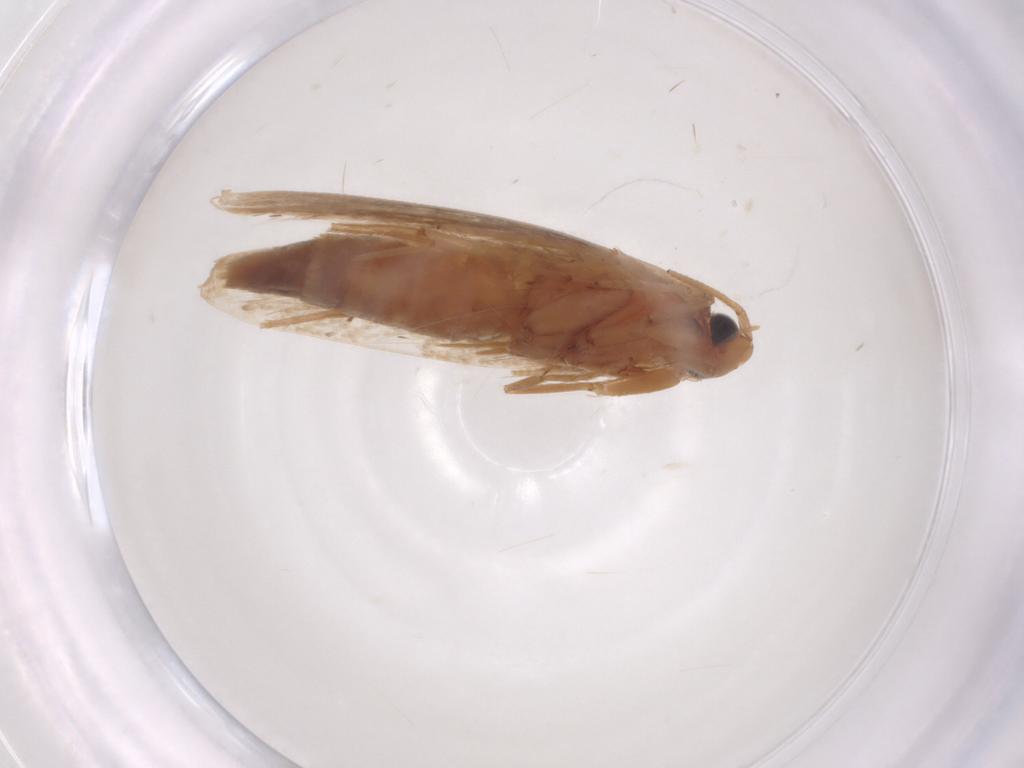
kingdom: Animalia
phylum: Arthropoda
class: Insecta
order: Lepidoptera
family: Tineidae
